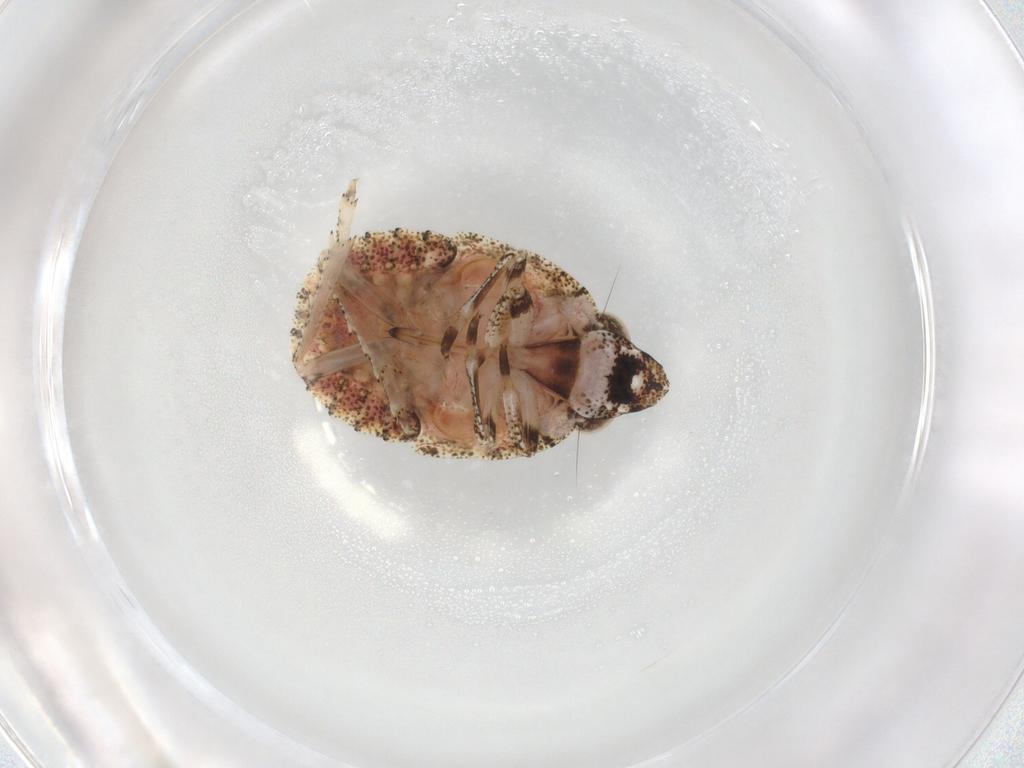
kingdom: Animalia
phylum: Arthropoda
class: Insecta
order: Hemiptera
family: Gengidae
